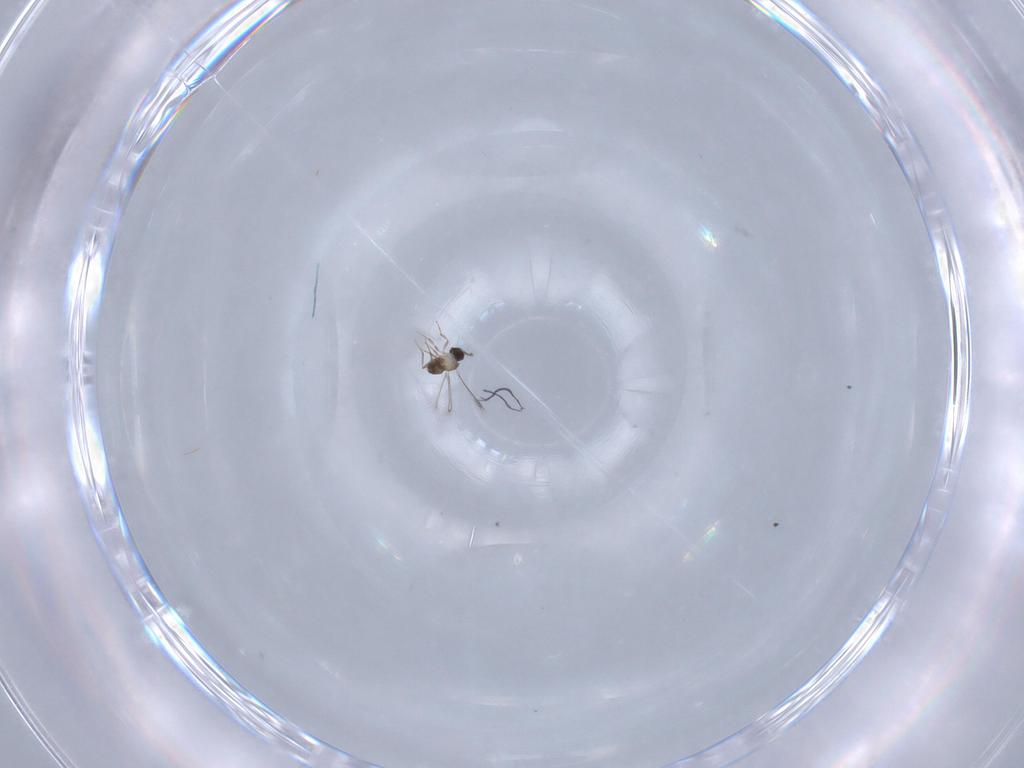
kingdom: Animalia
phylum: Arthropoda
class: Insecta
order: Hymenoptera
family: Mymaridae
